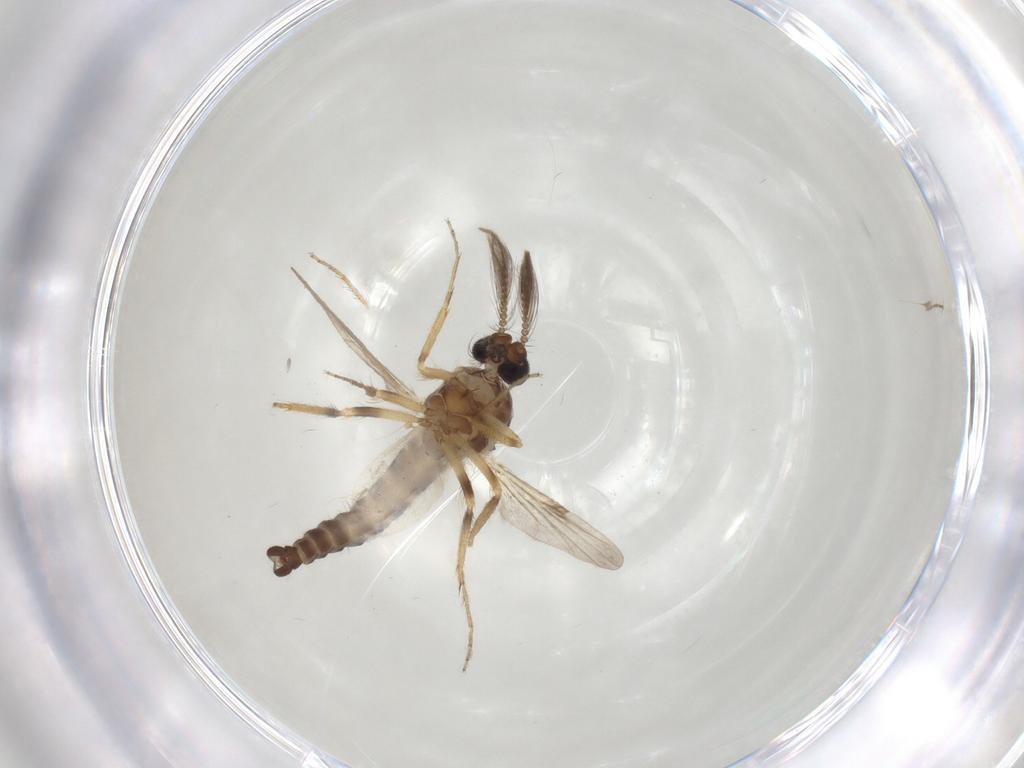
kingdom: Animalia
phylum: Arthropoda
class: Insecta
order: Diptera
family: Ceratopogonidae
